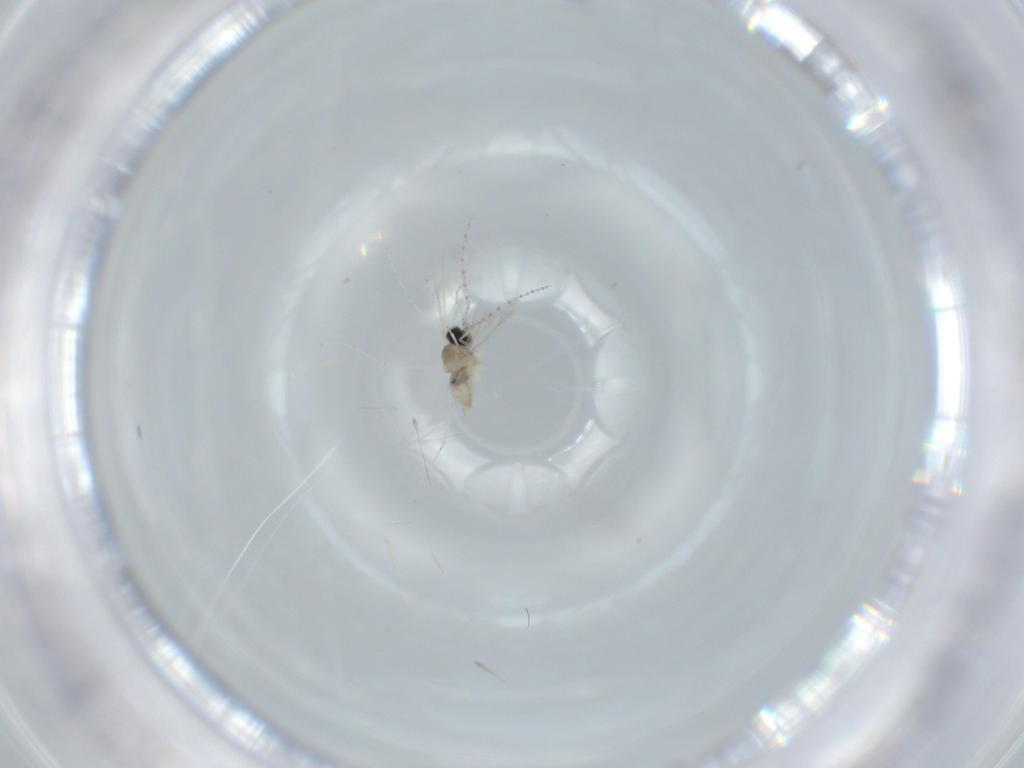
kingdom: Animalia
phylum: Arthropoda
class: Insecta
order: Diptera
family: Cecidomyiidae
